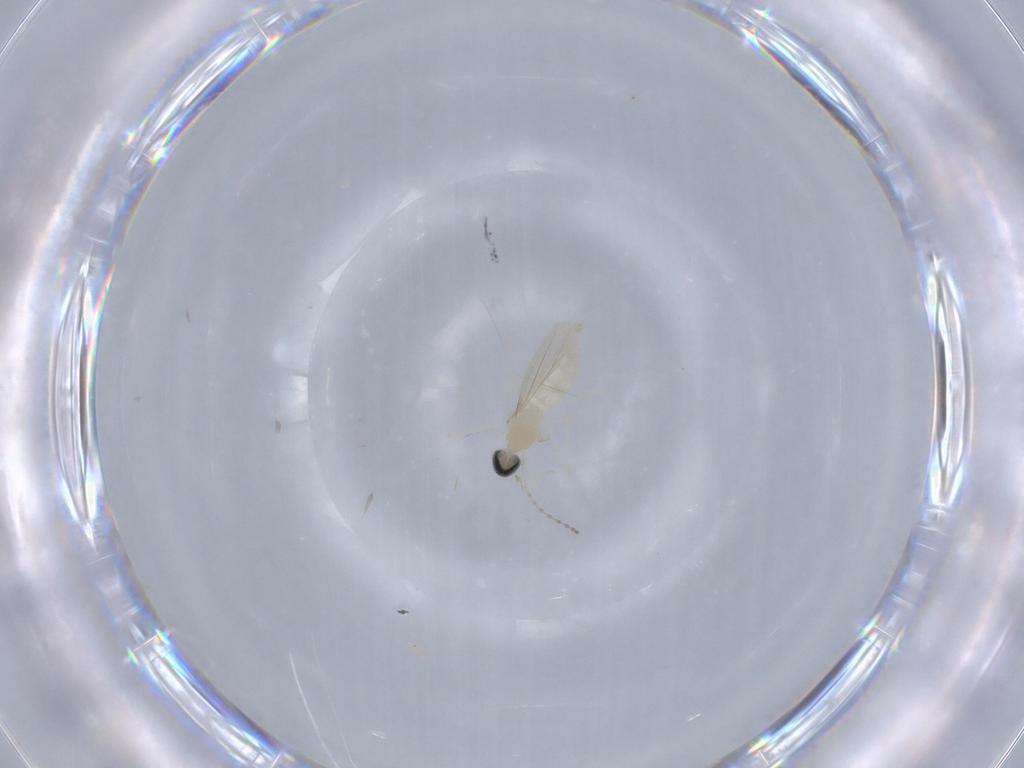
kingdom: Animalia
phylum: Arthropoda
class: Insecta
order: Diptera
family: Cecidomyiidae
